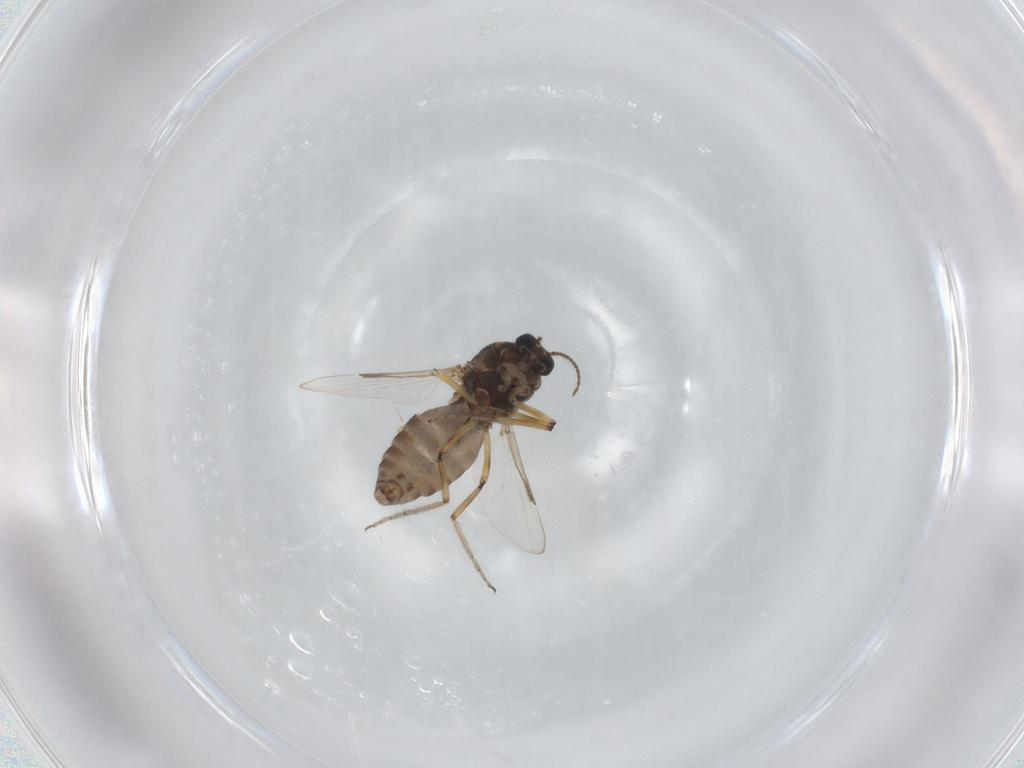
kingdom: Animalia
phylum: Arthropoda
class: Insecta
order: Diptera
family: Ceratopogonidae
